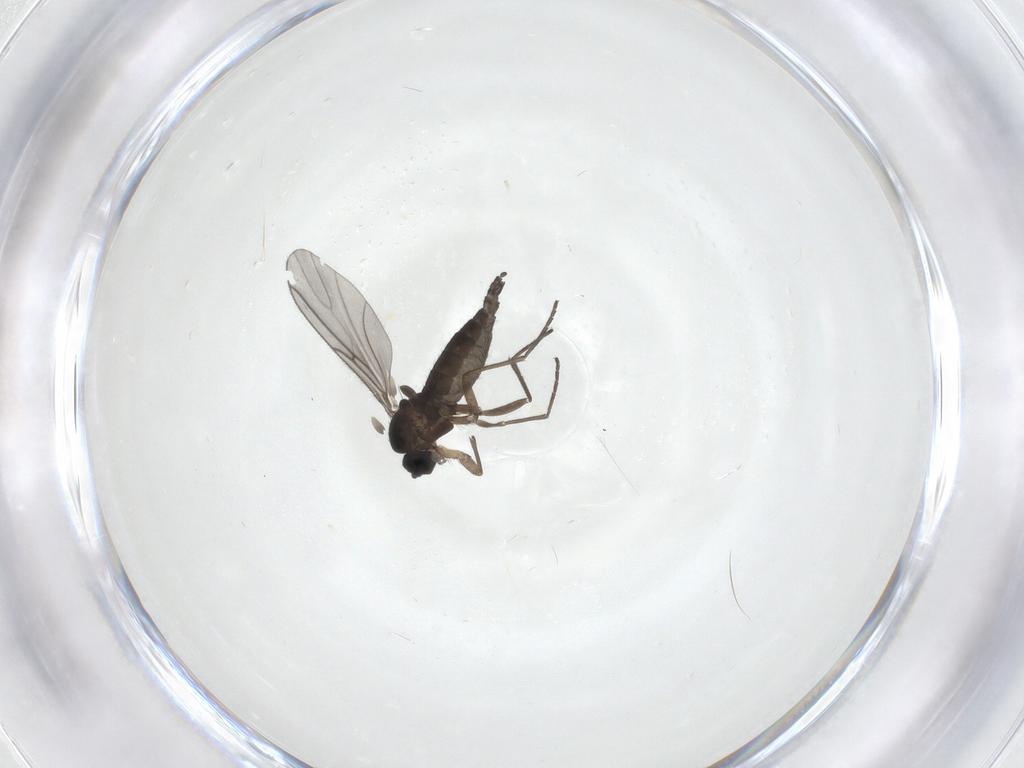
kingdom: Animalia
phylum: Arthropoda
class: Insecta
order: Diptera
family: Sciaridae
